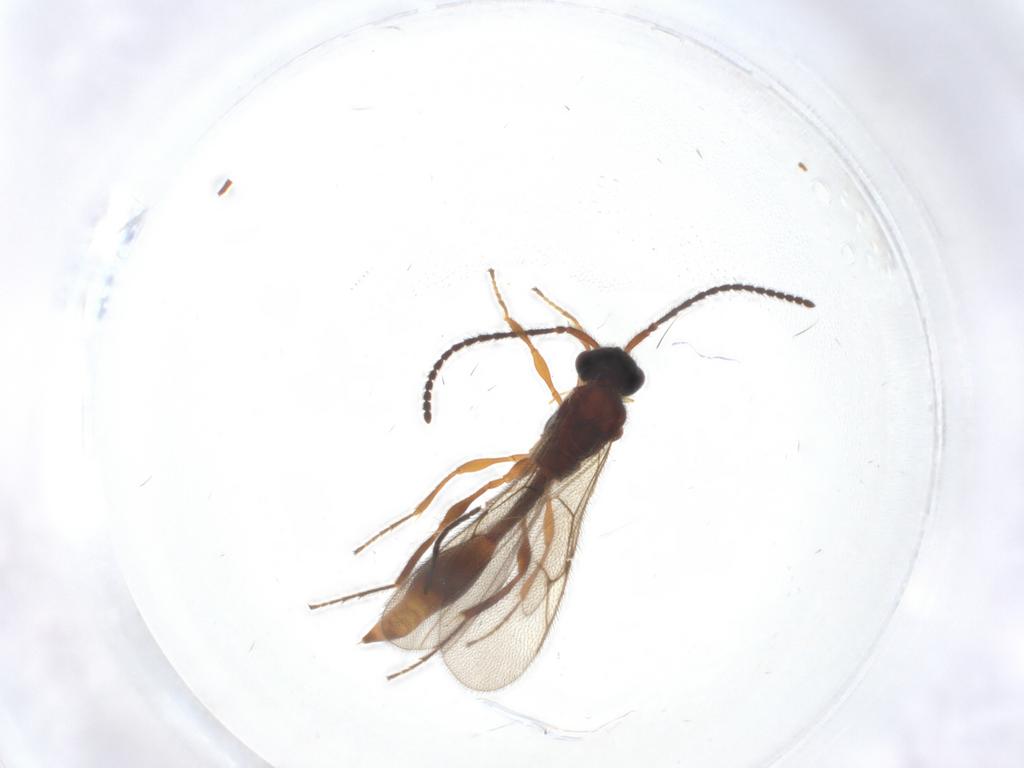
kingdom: Animalia
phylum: Arthropoda
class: Insecta
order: Hymenoptera
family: Diapriidae
